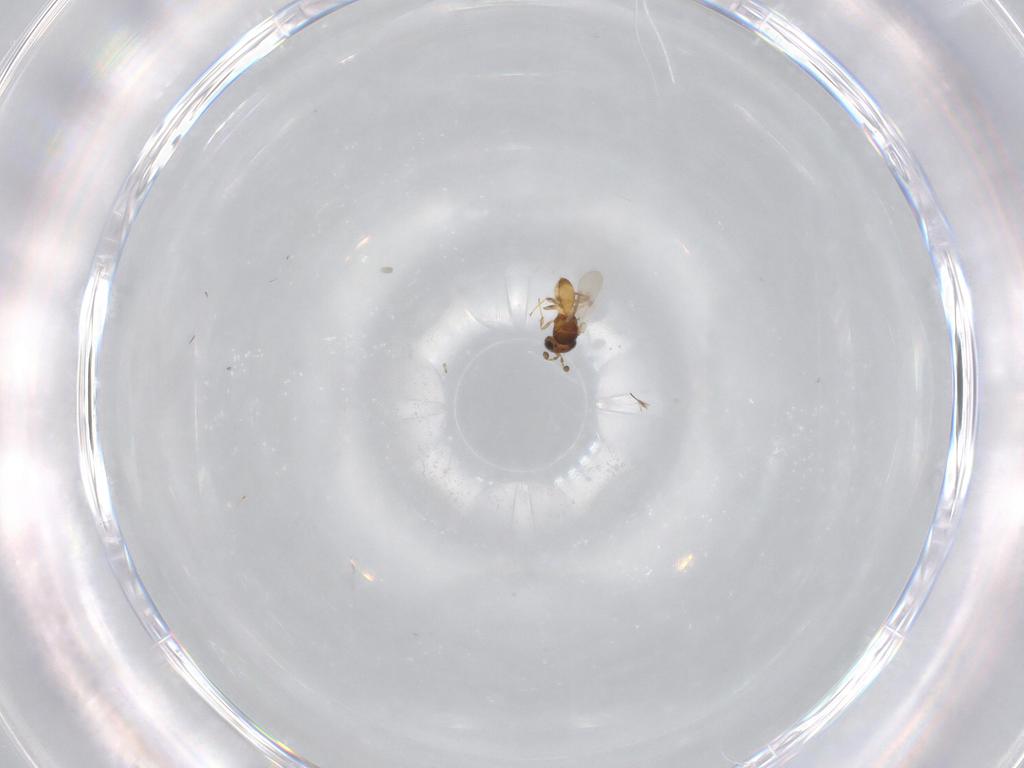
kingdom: Animalia
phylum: Arthropoda
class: Insecta
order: Hymenoptera
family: Scelionidae
